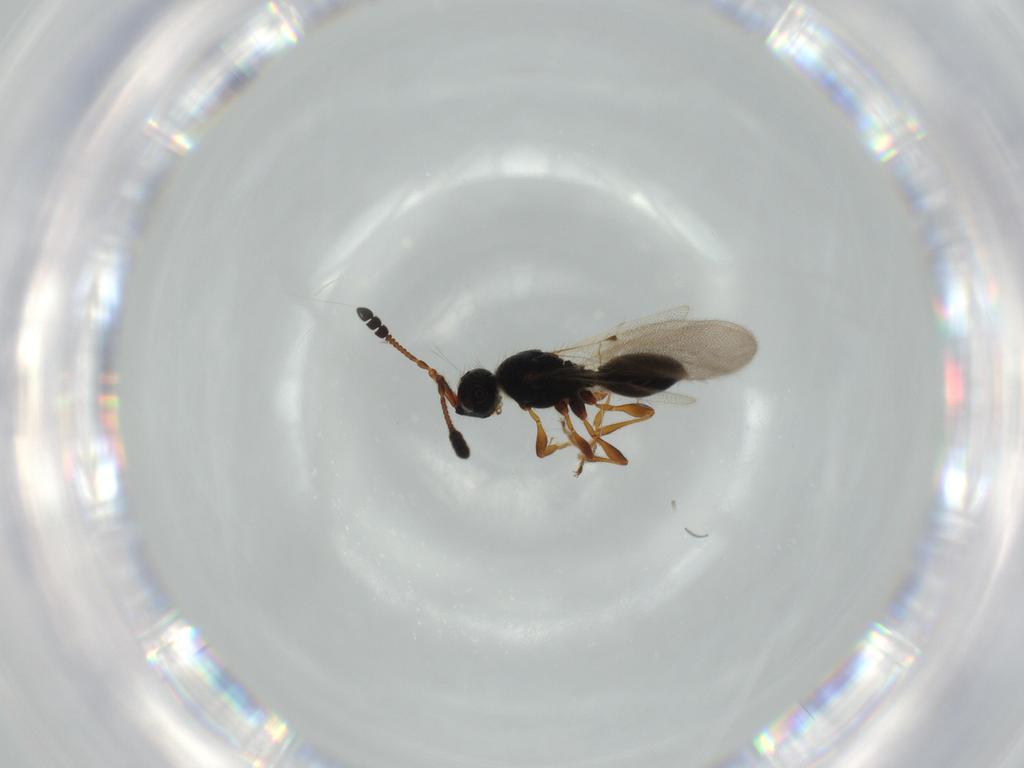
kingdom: Animalia
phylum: Arthropoda
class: Insecta
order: Hymenoptera
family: Diapriidae
